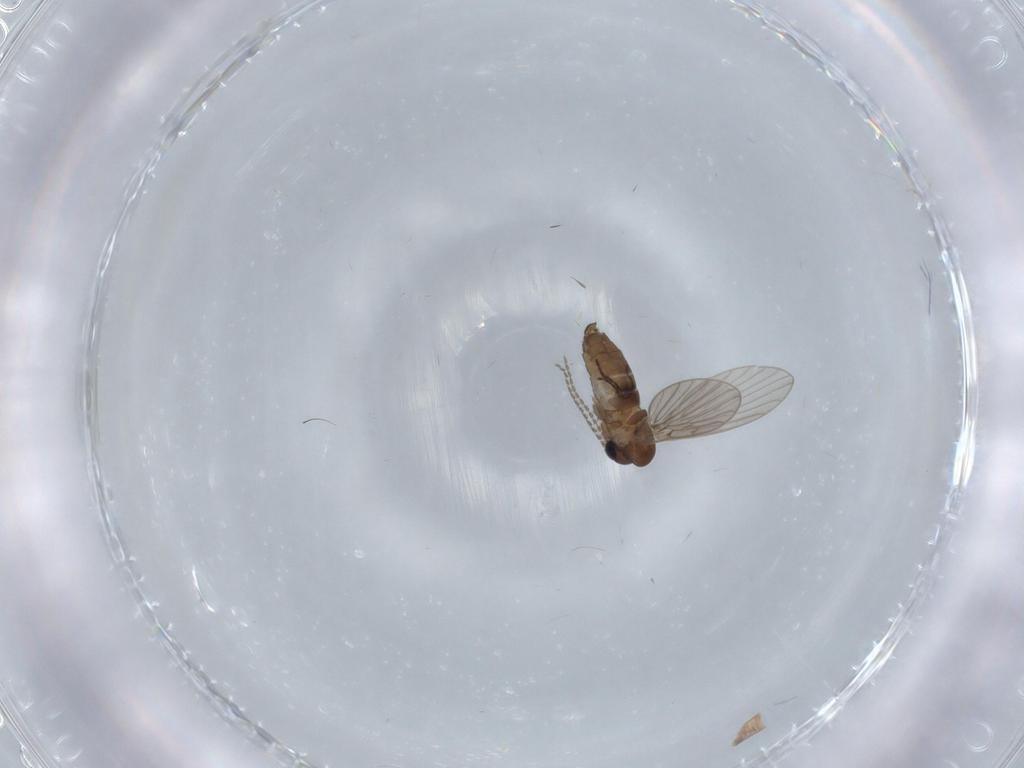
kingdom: Animalia
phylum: Arthropoda
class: Insecta
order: Diptera
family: Psychodidae
